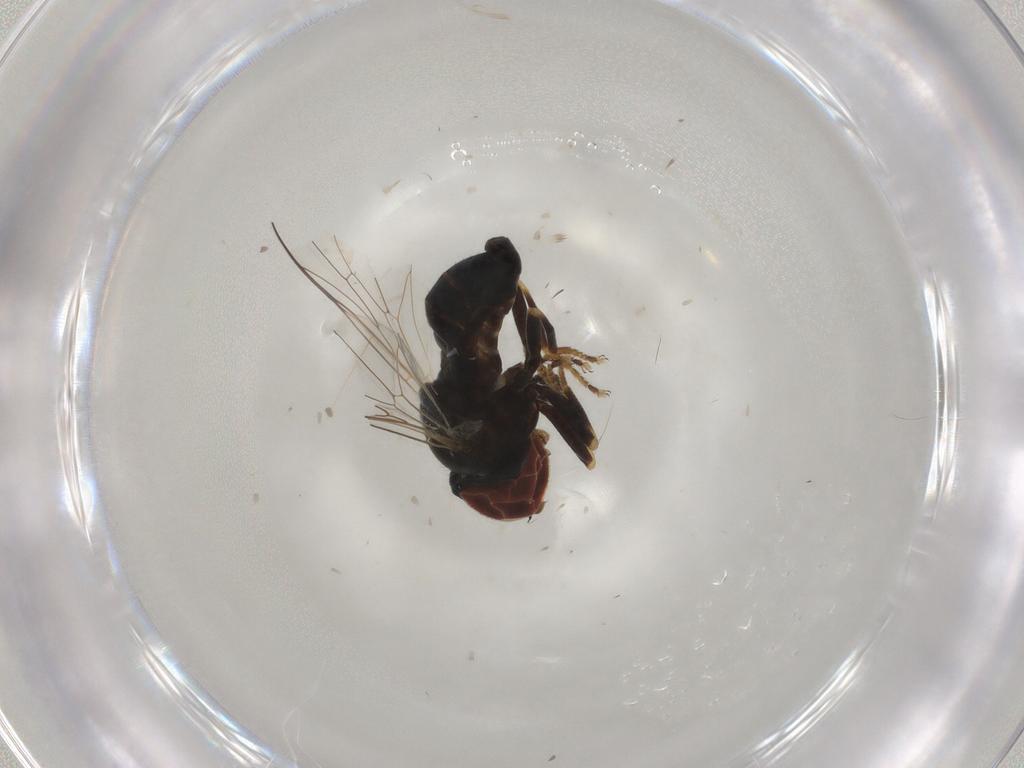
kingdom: Animalia
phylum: Arthropoda
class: Insecta
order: Diptera
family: Pipunculidae
